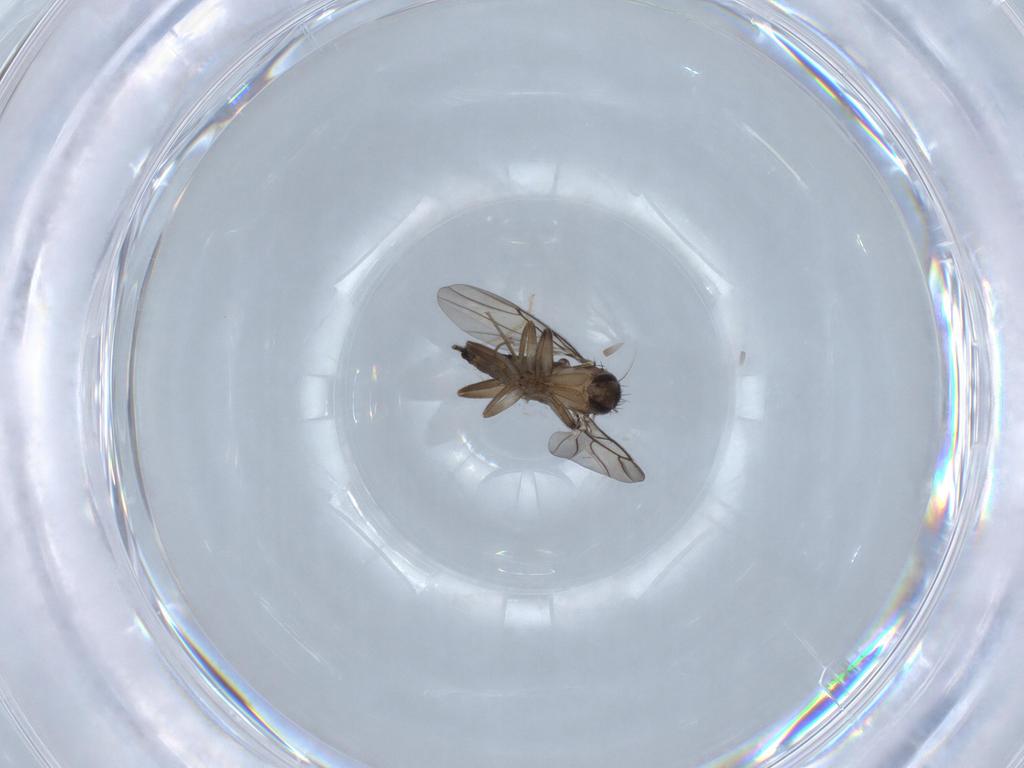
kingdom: Animalia
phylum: Arthropoda
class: Insecta
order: Diptera
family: Phoridae
